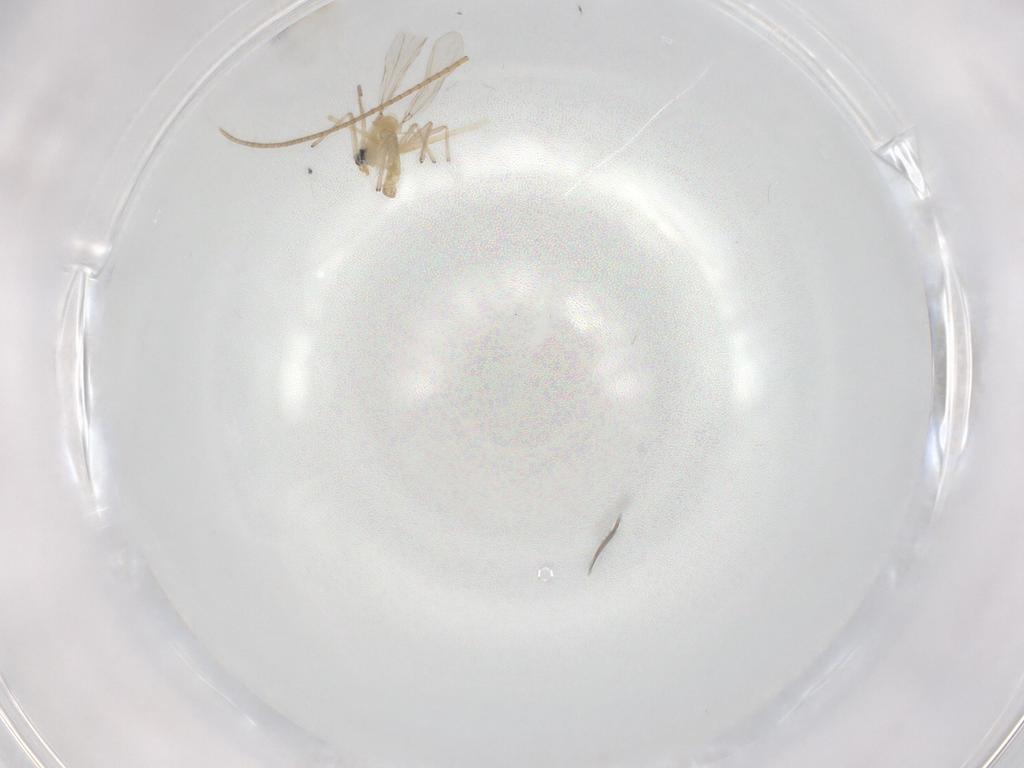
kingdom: Animalia
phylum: Arthropoda
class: Insecta
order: Diptera
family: Chironomidae
